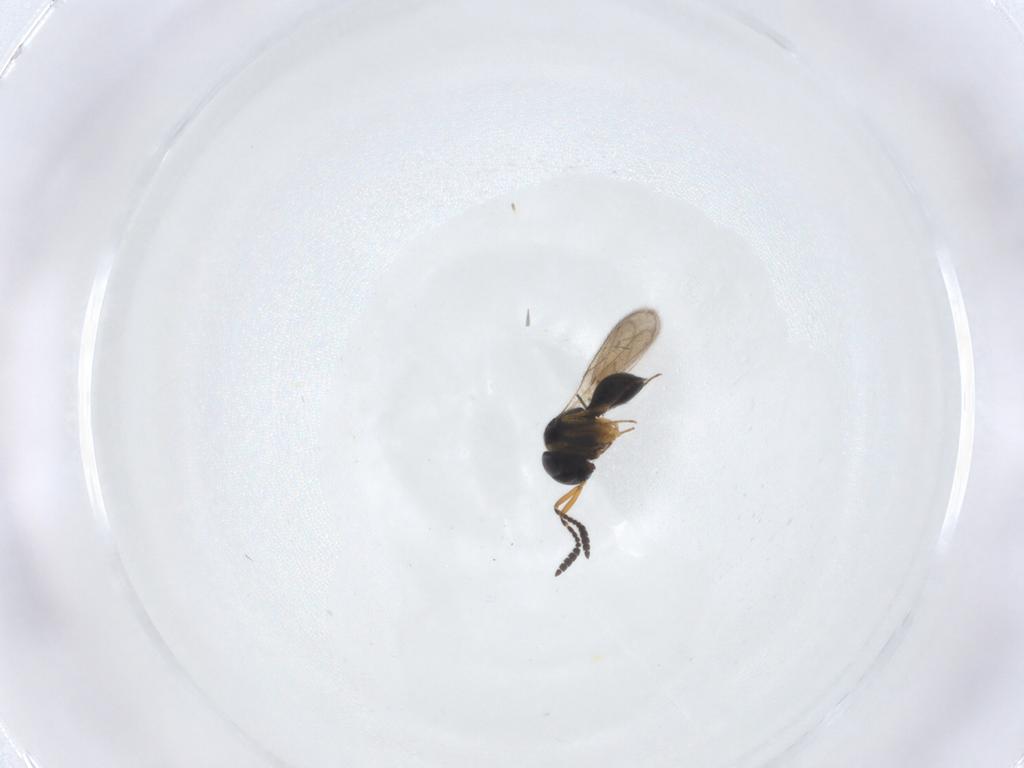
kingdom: Animalia
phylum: Arthropoda
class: Insecta
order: Hymenoptera
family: Scelionidae
